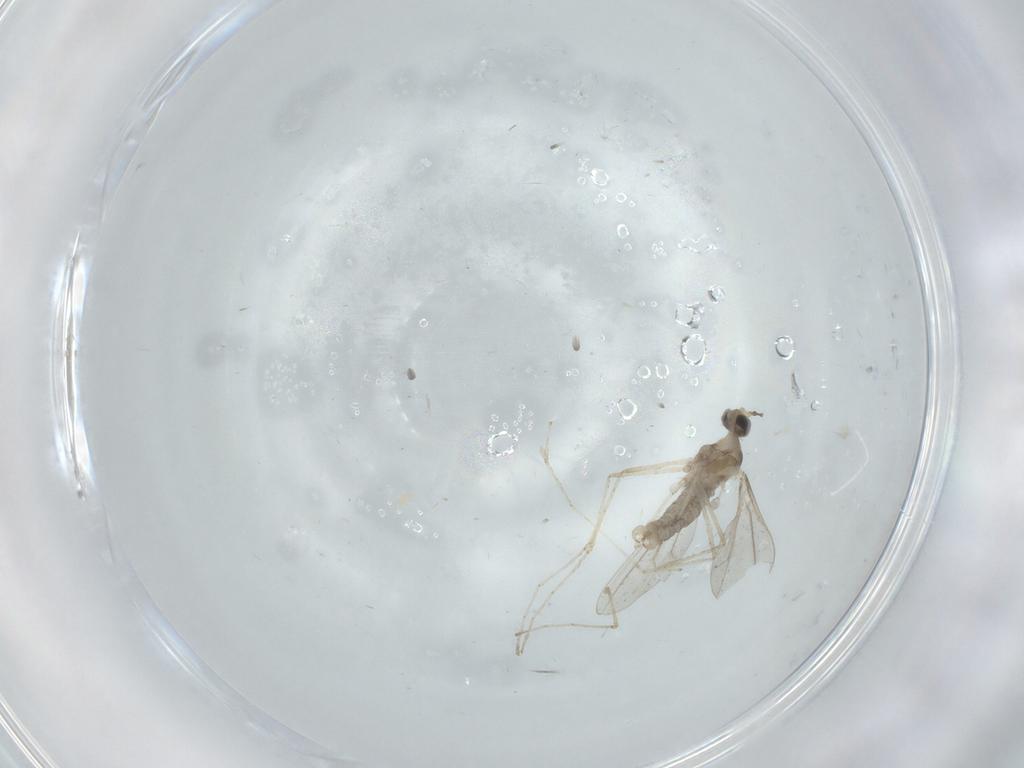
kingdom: Animalia
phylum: Arthropoda
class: Insecta
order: Diptera
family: Cecidomyiidae
